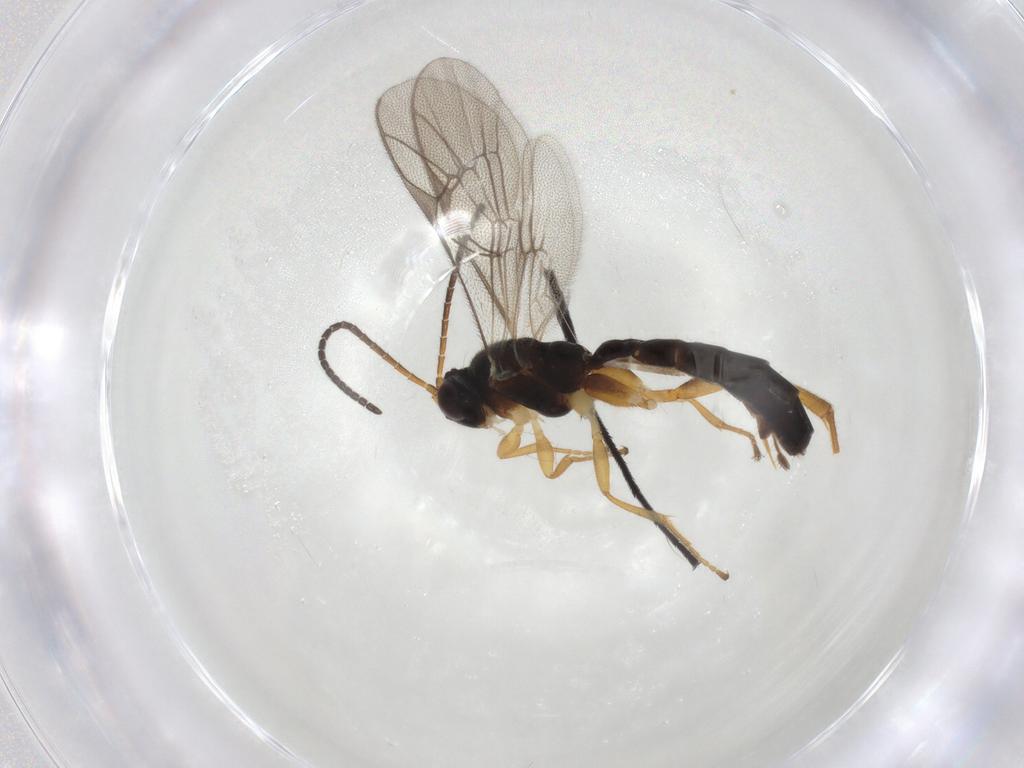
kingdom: Animalia
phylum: Arthropoda
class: Insecta
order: Hymenoptera
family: Ichneumonidae
